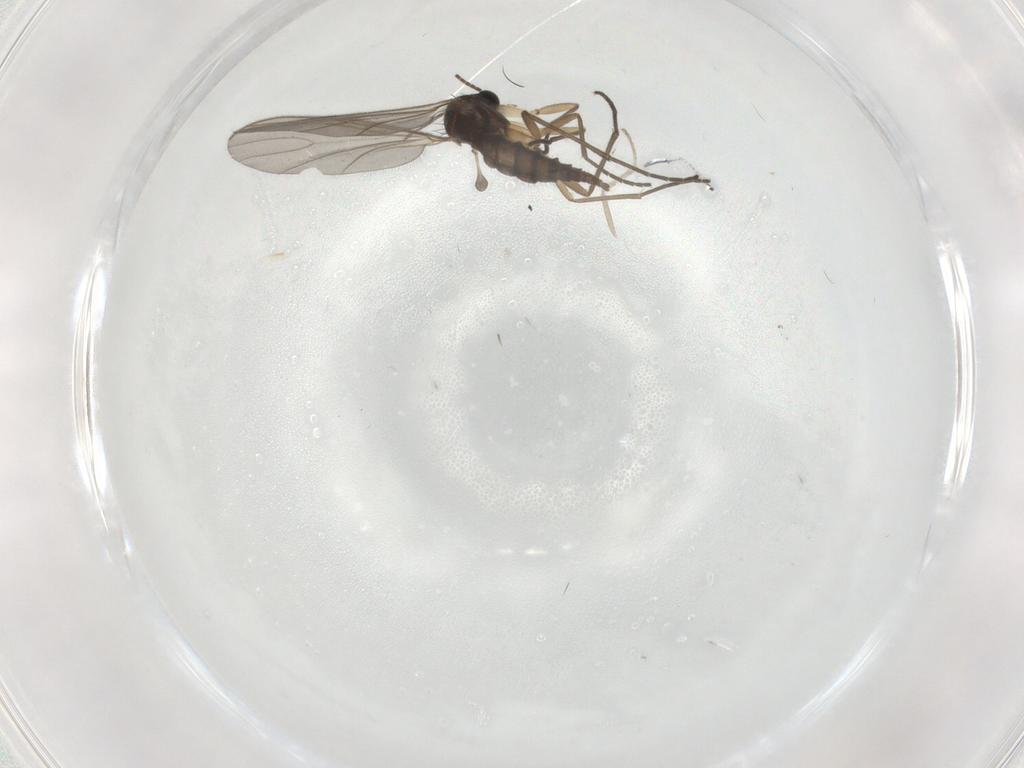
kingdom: Animalia
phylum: Arthropoda
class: Insecta
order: Diptera
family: Sciaridae
